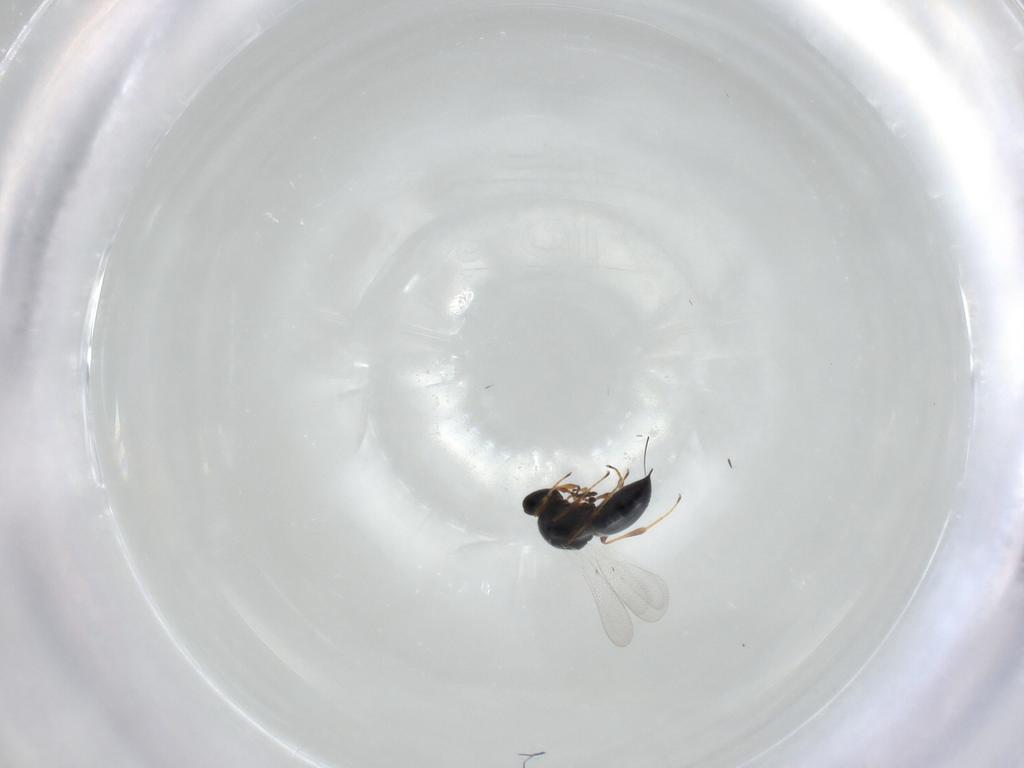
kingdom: Animalia
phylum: Arthropoda
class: Insecta
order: Hymenoptera
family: Platygastridae
